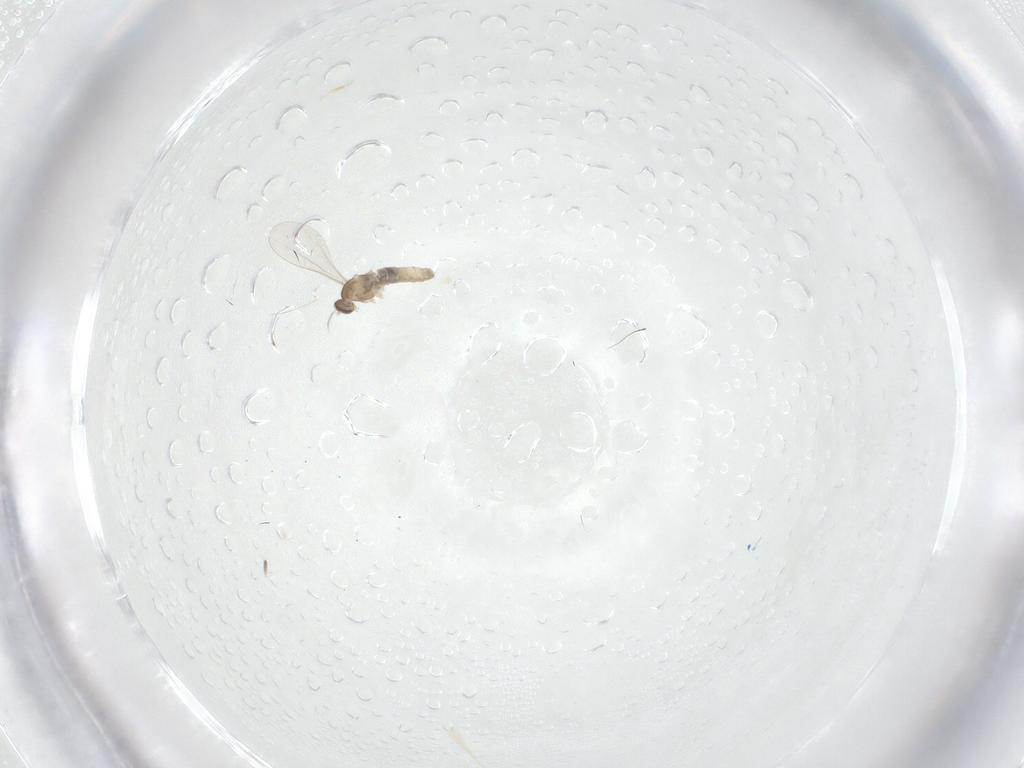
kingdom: Animalia
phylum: Arthropoda
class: Insecta
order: Diptera
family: Cecidomyiidae
